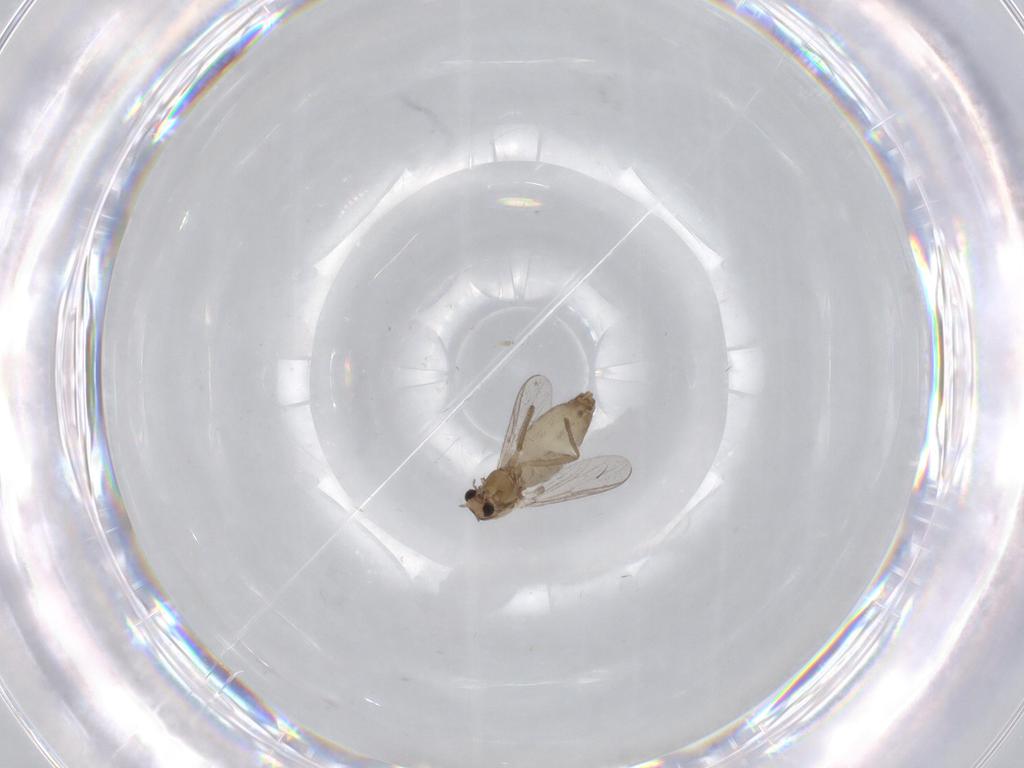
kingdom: Animalia
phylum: Arthropoda
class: Insecta
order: Diptera
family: Chironomidae
